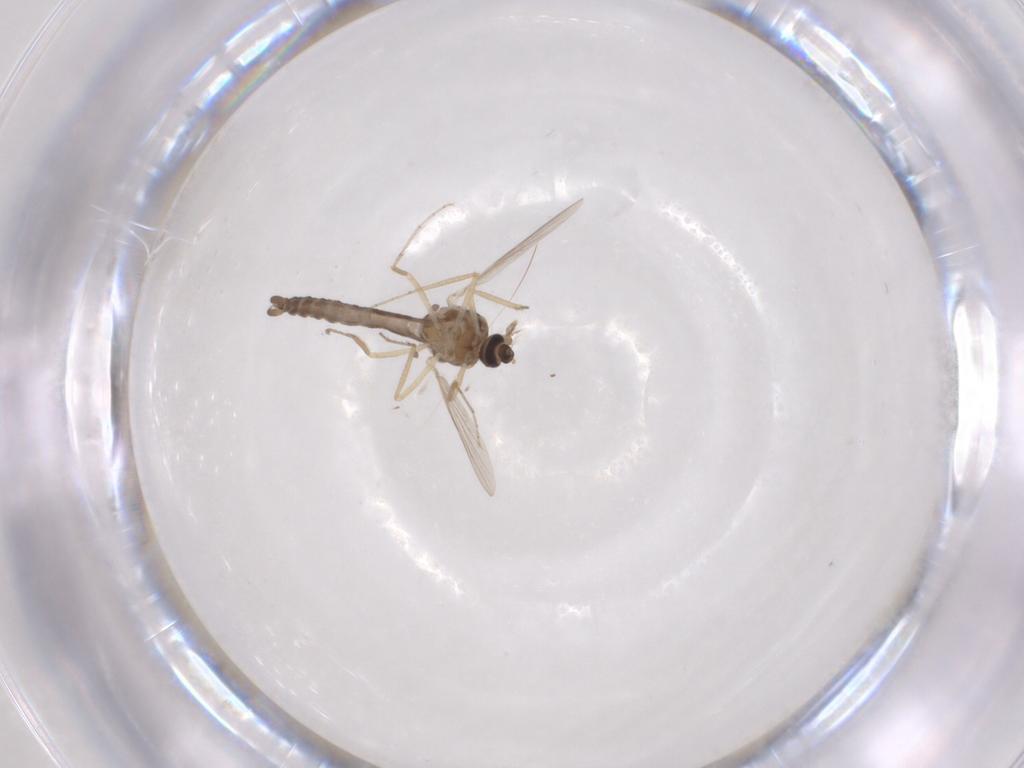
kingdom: Animalia
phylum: Arthropoda
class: Insecta
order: Diptera
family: Ceratopogonidae
